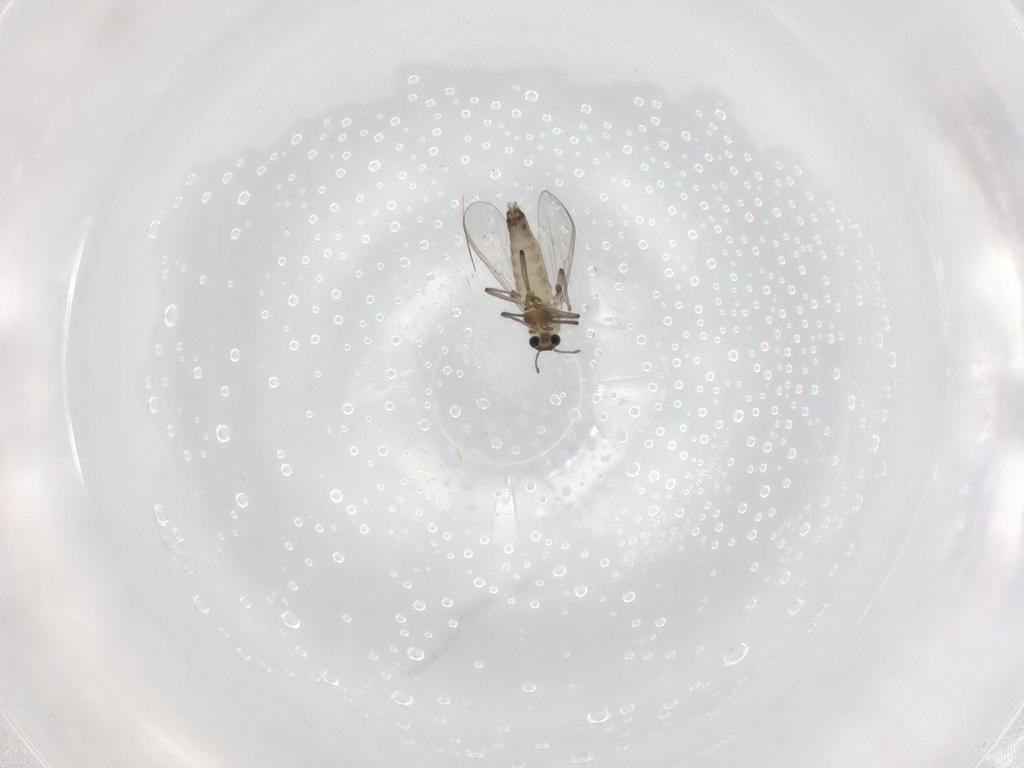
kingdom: Animalia
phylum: Arthropoda
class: Insecta
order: Diptera
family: Chironomidae
